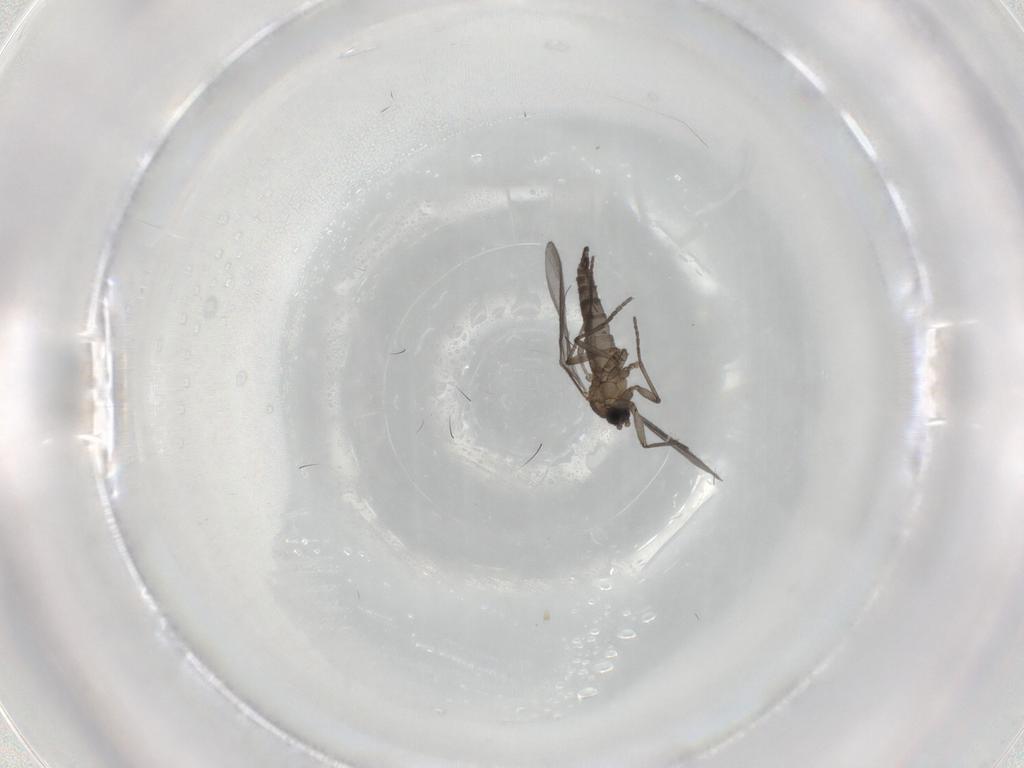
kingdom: Animalia
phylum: Arthropoda
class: Insecta
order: Diptera
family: Sciaridae
